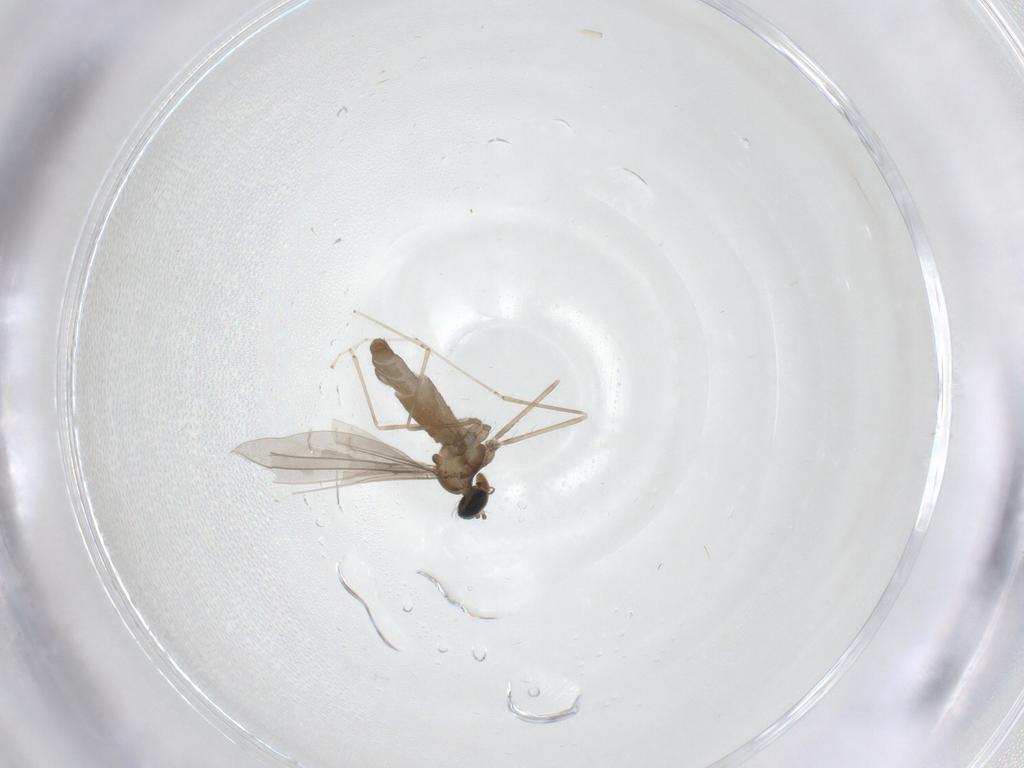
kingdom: Animalia
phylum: Arthropoda
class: Insecta
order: Diptera
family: Cecidomyiidae
